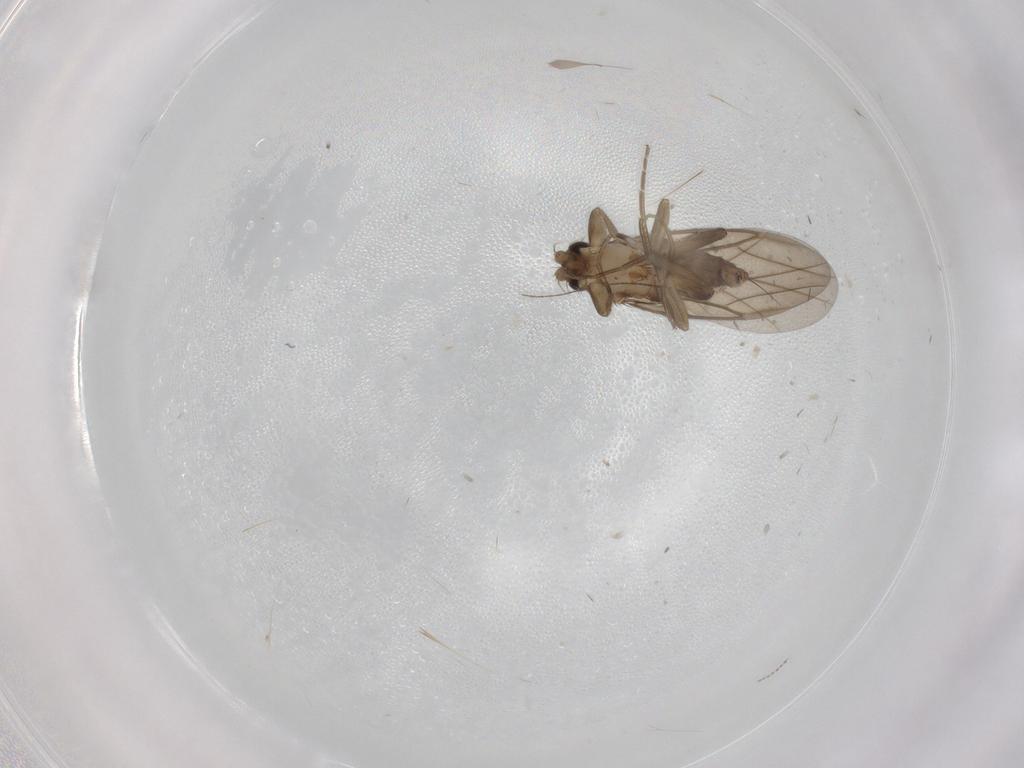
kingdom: Animalia
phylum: Arthropoda
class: Insecta
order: Diptera
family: Cecidomyiidae
